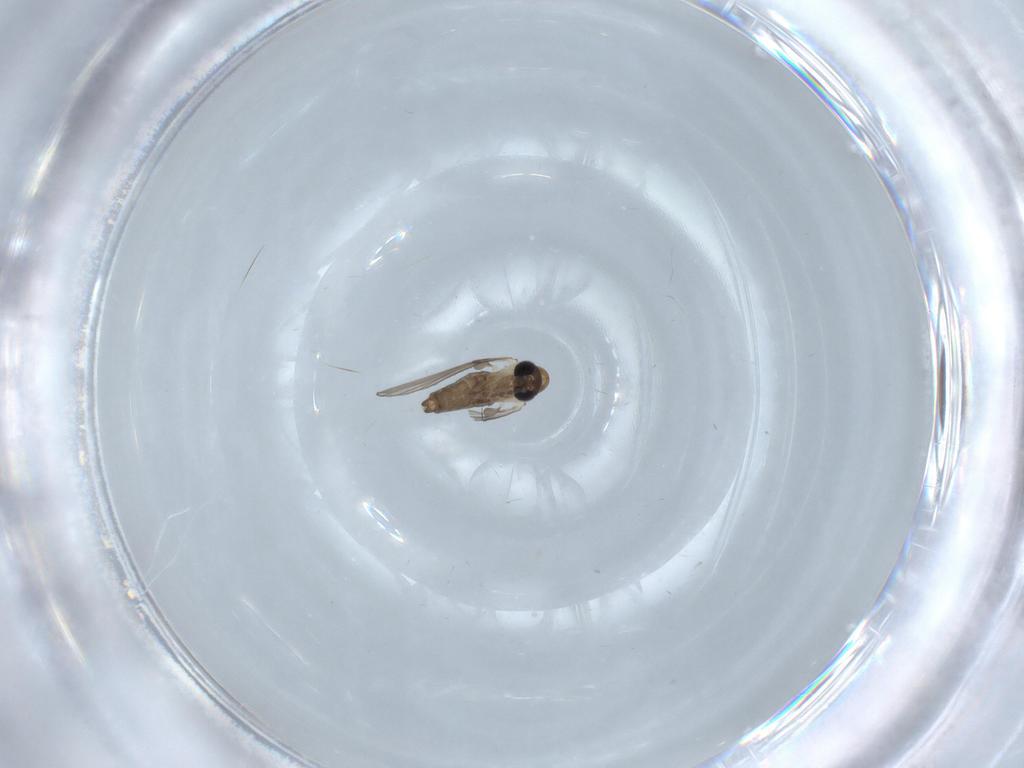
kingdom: Animalia
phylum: Arthropoda
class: Insecta
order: Diptera
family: Psychodidae
